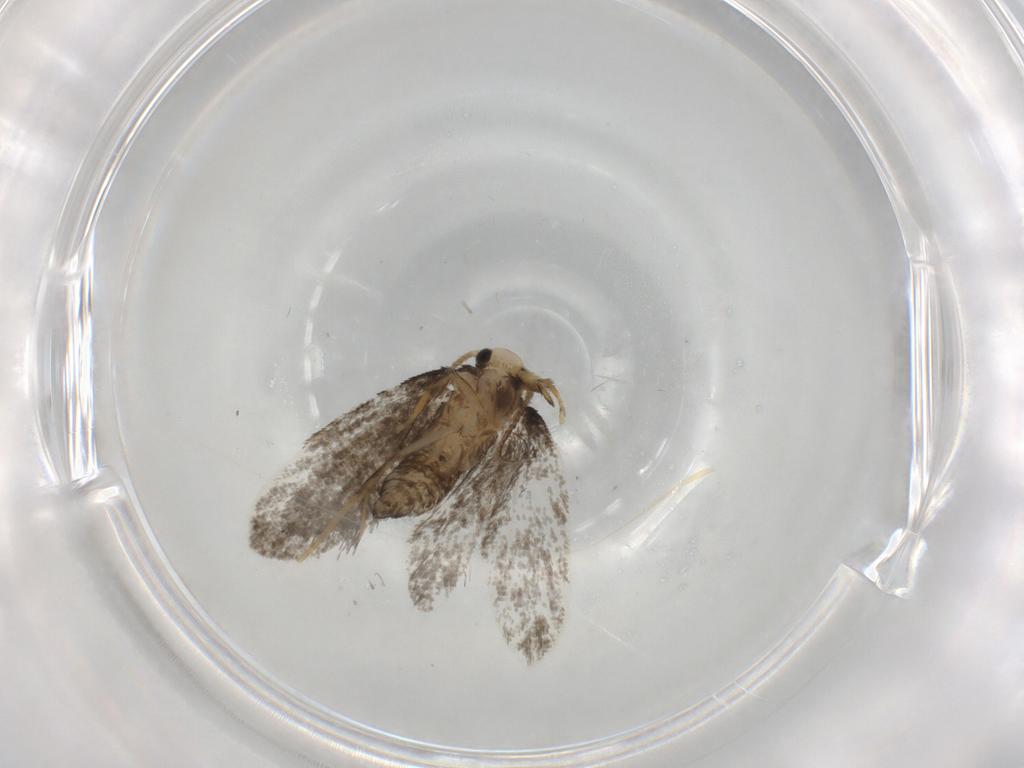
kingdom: Animalia
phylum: Arthropoda
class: Insecta
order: Lepidoptera
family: Psychidae
